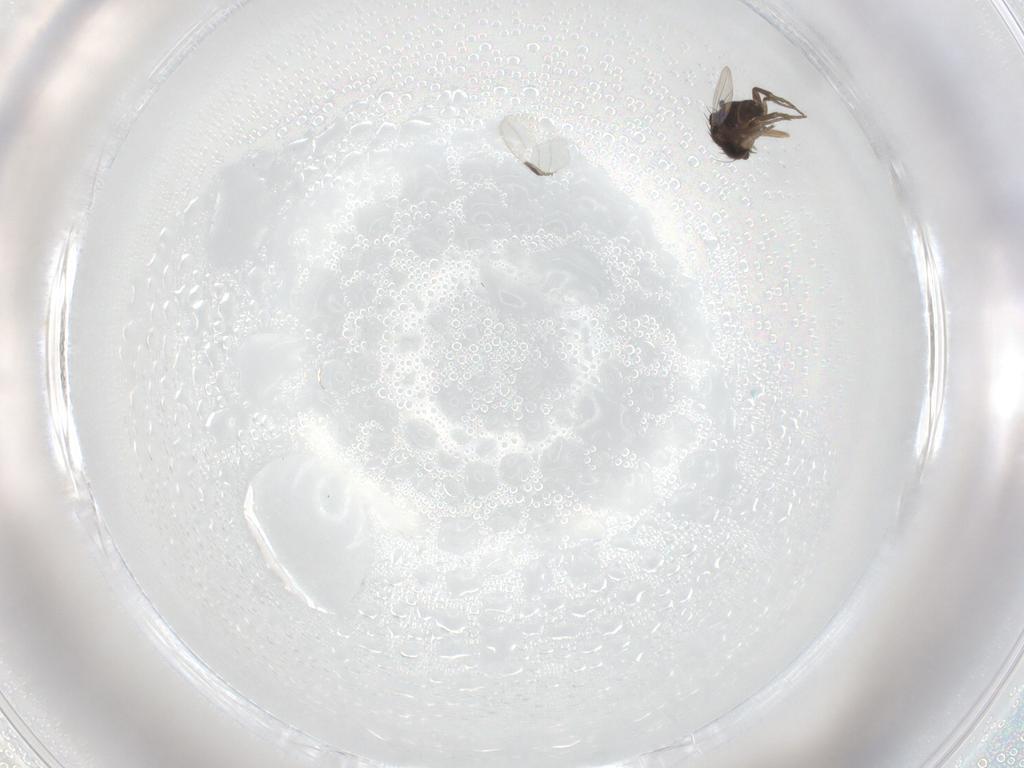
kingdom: Animalia
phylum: Arthropoda
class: Insecta
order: Diptera
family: Phoridae
